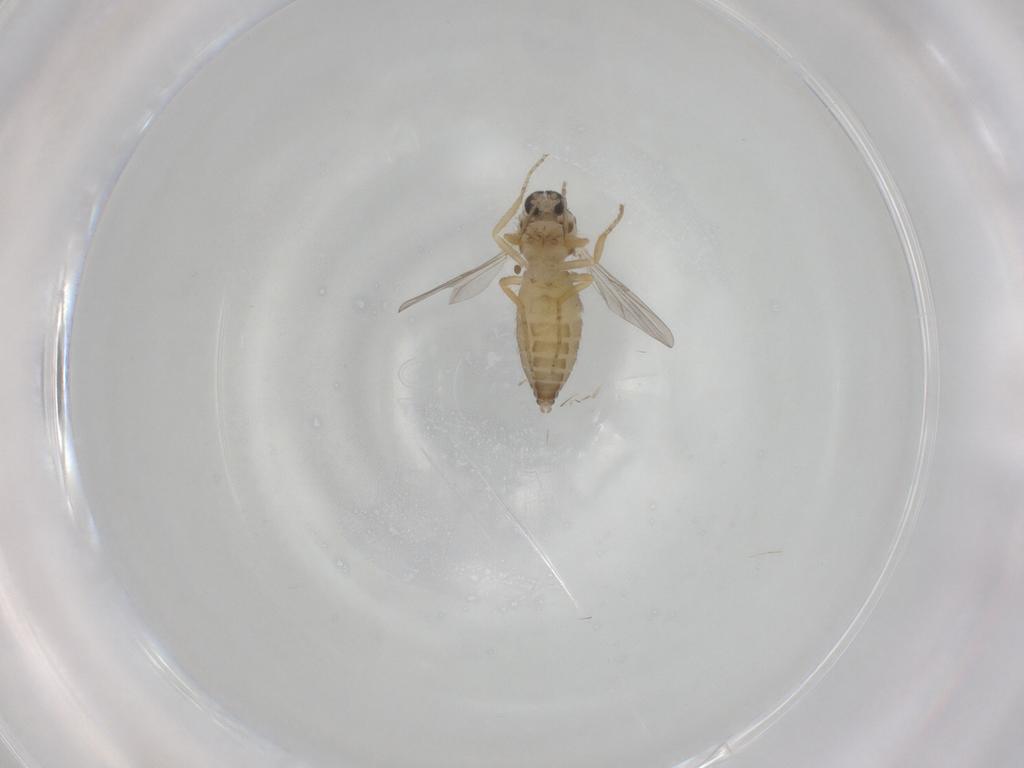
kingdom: Animalia
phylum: Arthropoda
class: Insecta
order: Diptera
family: Ceratopogonidae
